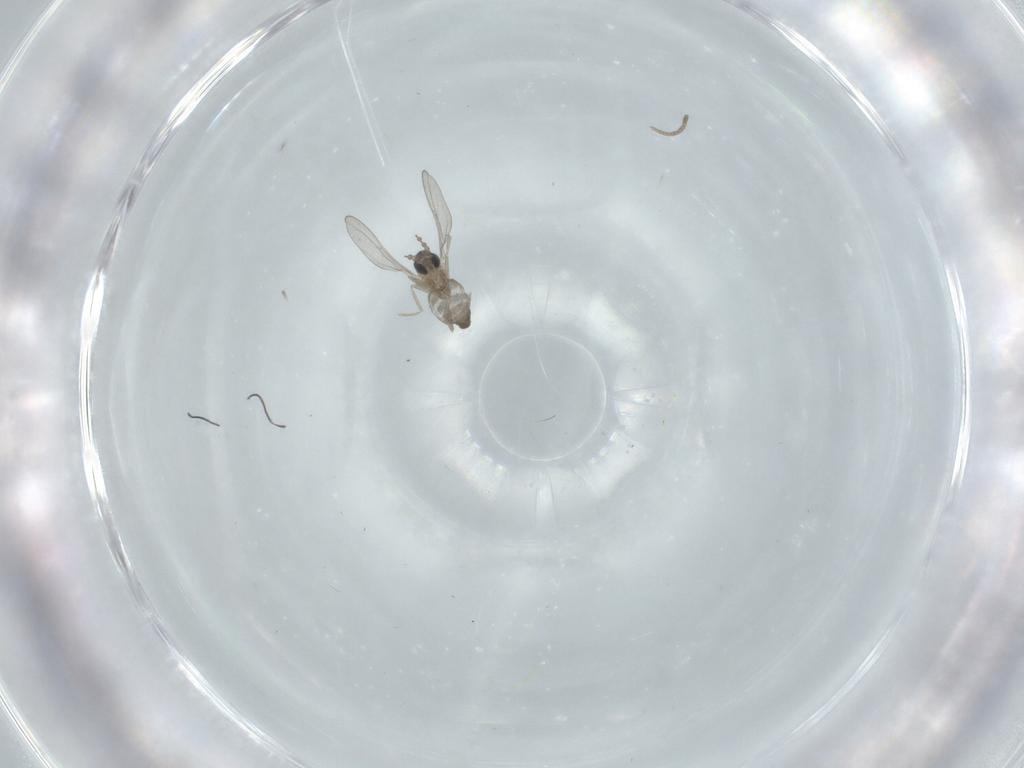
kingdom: Animalia
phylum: Arthropoda
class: Insecta
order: Diptera
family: Cecidomyiidae
